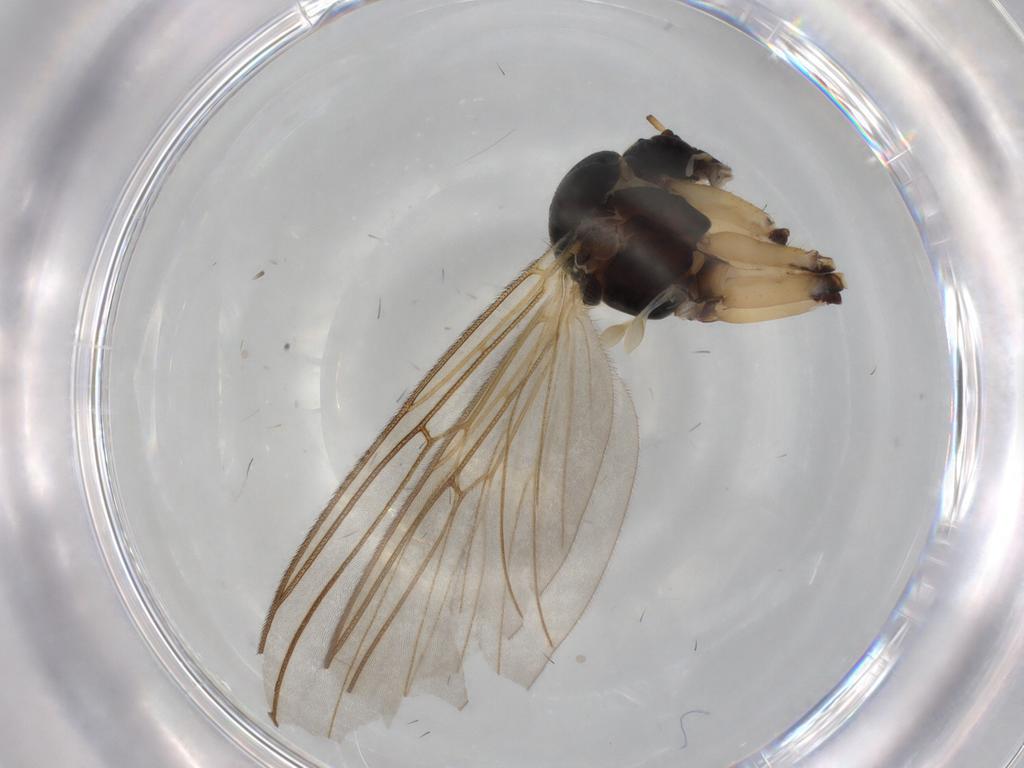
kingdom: Animalia
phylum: Arthropoda
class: Insecta
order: Diptera
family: Mycetophilidae
